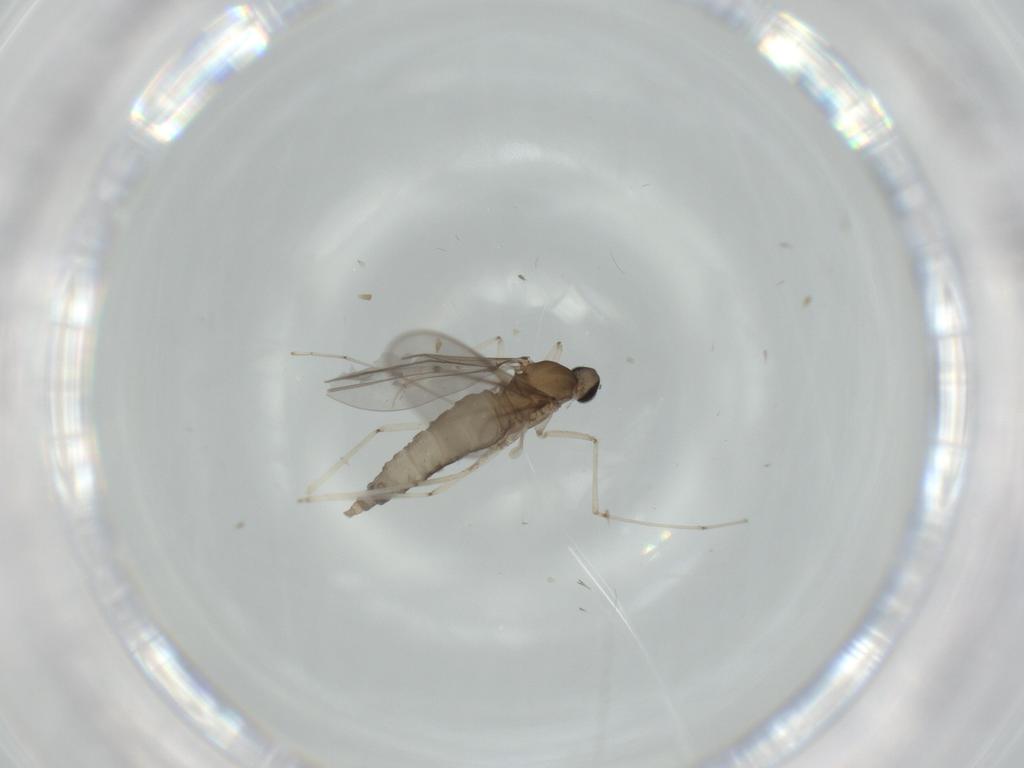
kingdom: Animalia
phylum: Arthropoda
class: Insecta
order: Diptera
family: Cecidomyiidae
